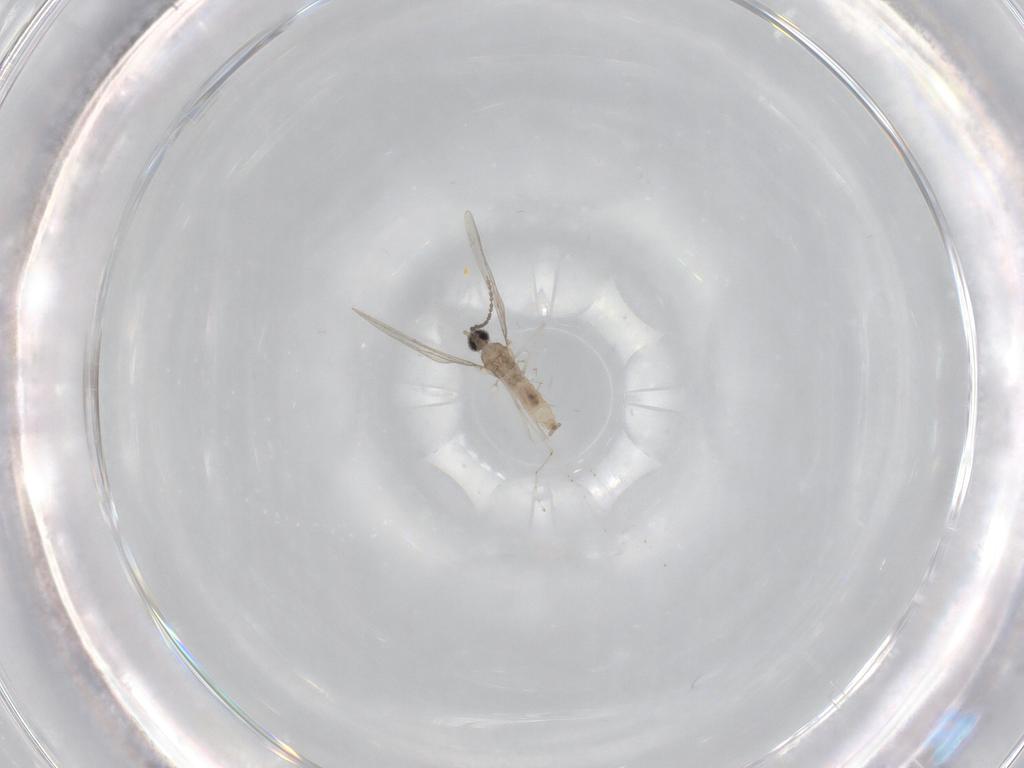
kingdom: Animalia
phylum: Arthropoda
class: Insecta
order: Diptera
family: Cecidomyiidae
